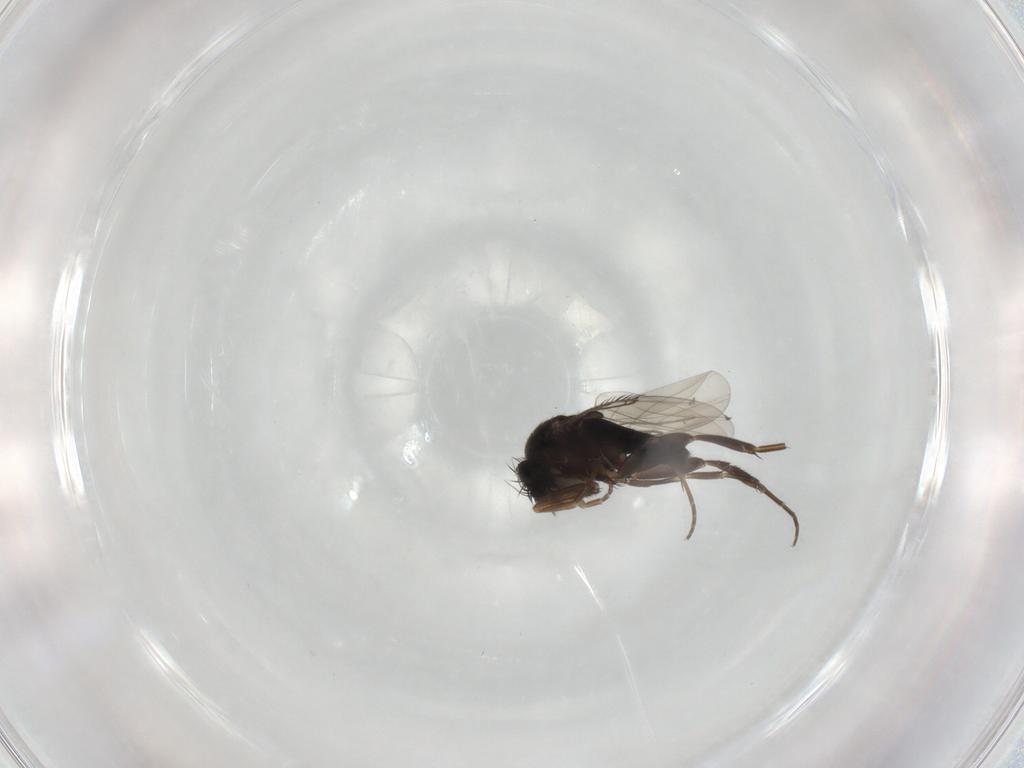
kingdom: Animalia
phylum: Arthropoda
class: Insecta
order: Diptera
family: Phoridae
